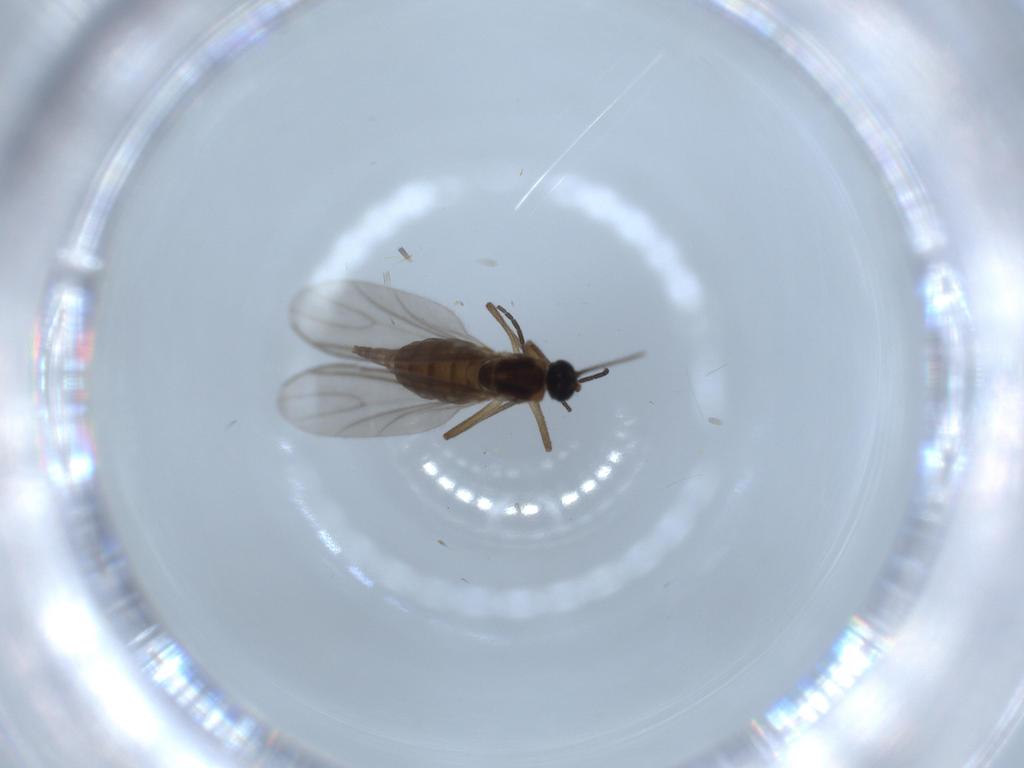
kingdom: Animalia
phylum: Arthropoda
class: Insecta
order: Diptera
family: Sciaridae
